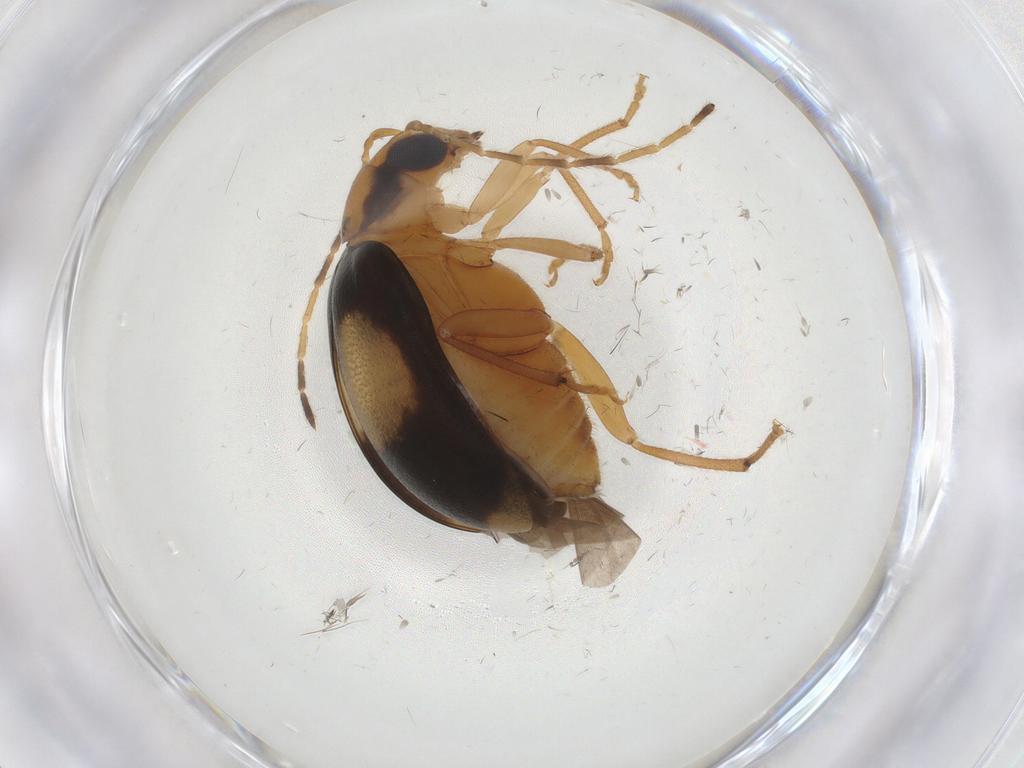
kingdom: Animalia
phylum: Arthropoda
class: Insecta
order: Coleoptera
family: Chrysomelidae
